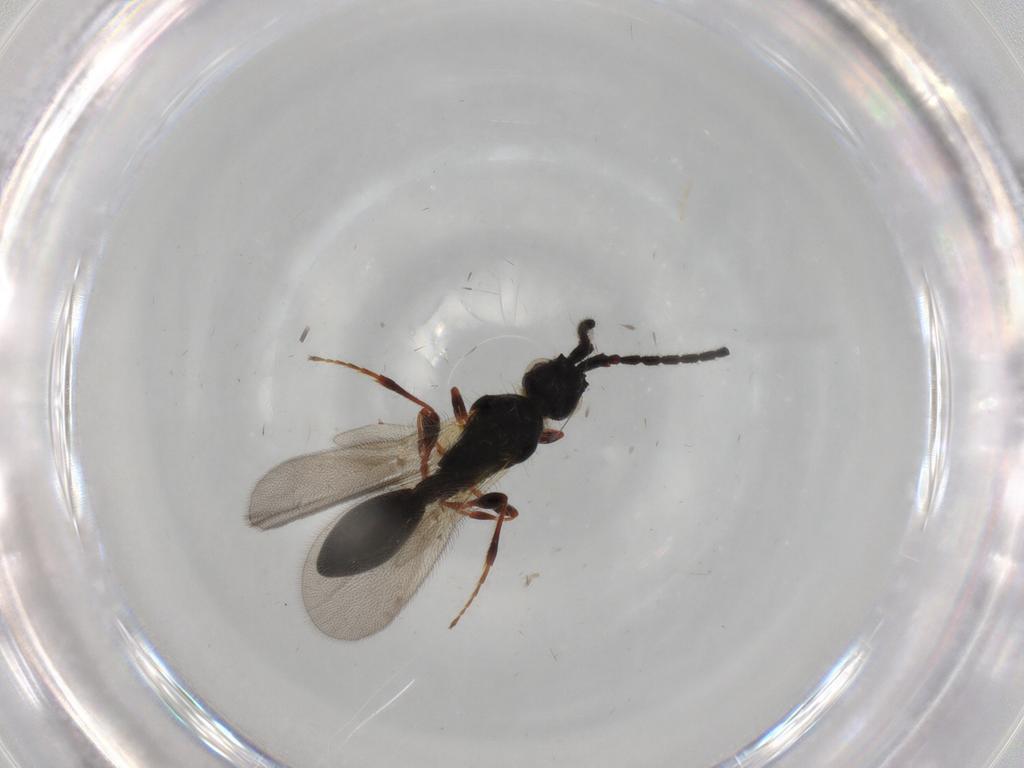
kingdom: Animalia
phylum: Arthropoda
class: Insecta
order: Hymenoptera
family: Diapriidae
